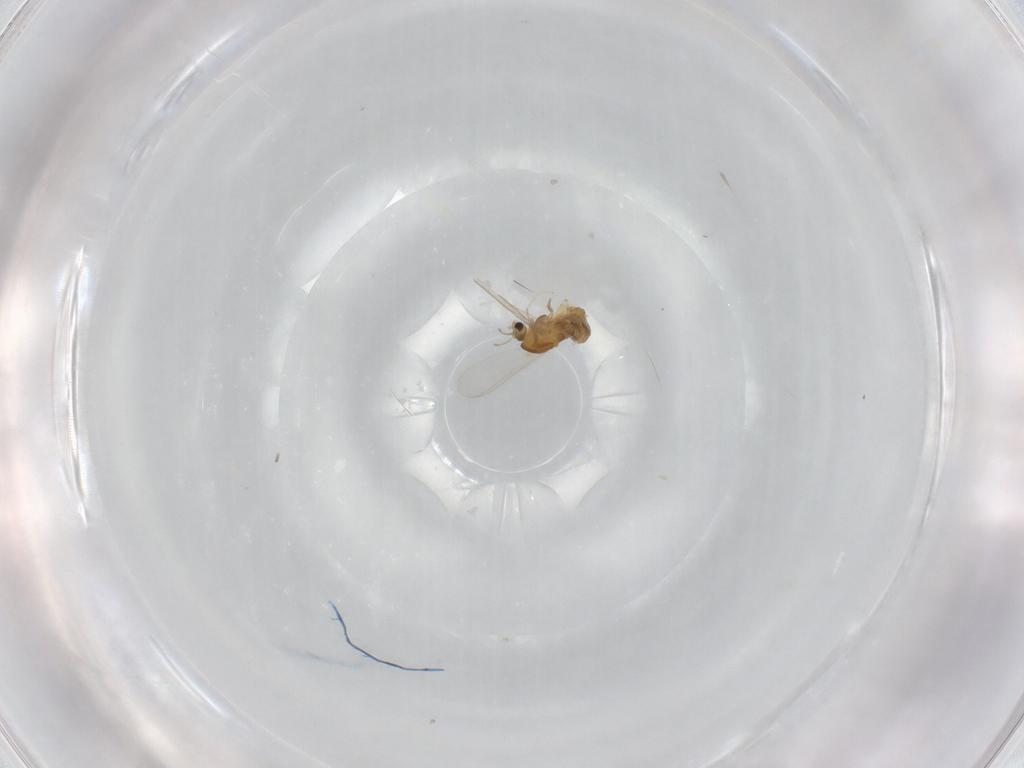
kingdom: Animalia
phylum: Arthropoda
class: Insecta
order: Diptera
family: Chironomidae
